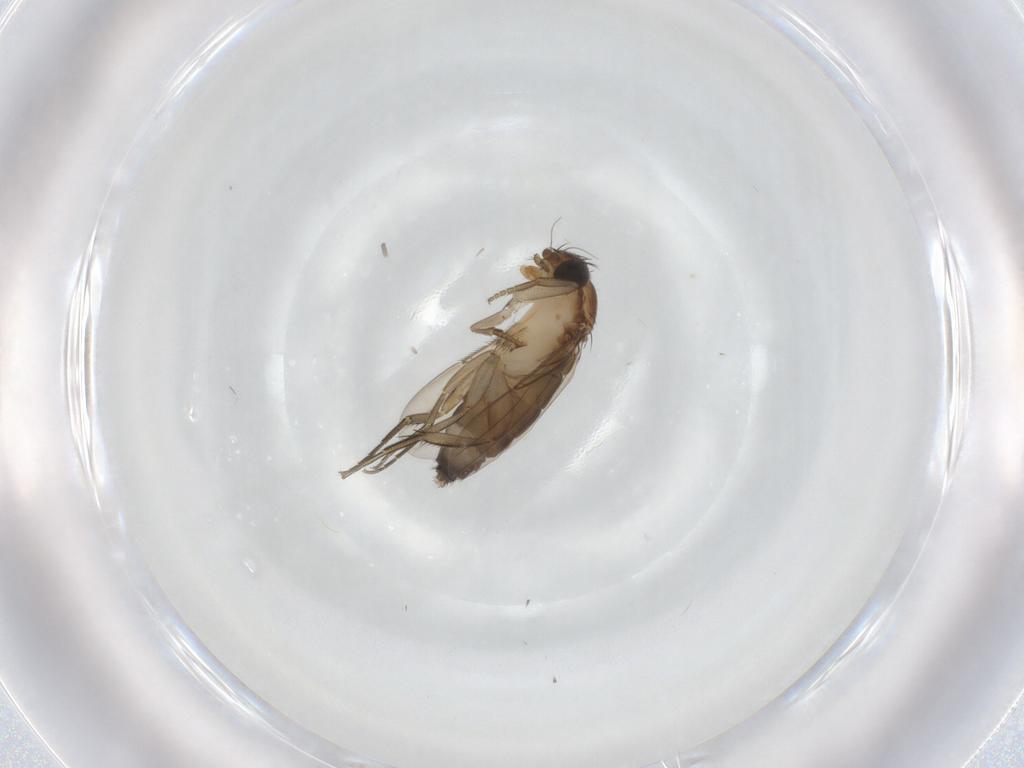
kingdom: Animalia
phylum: Arthropoda
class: Insecta
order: Diptera
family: Phoridae
